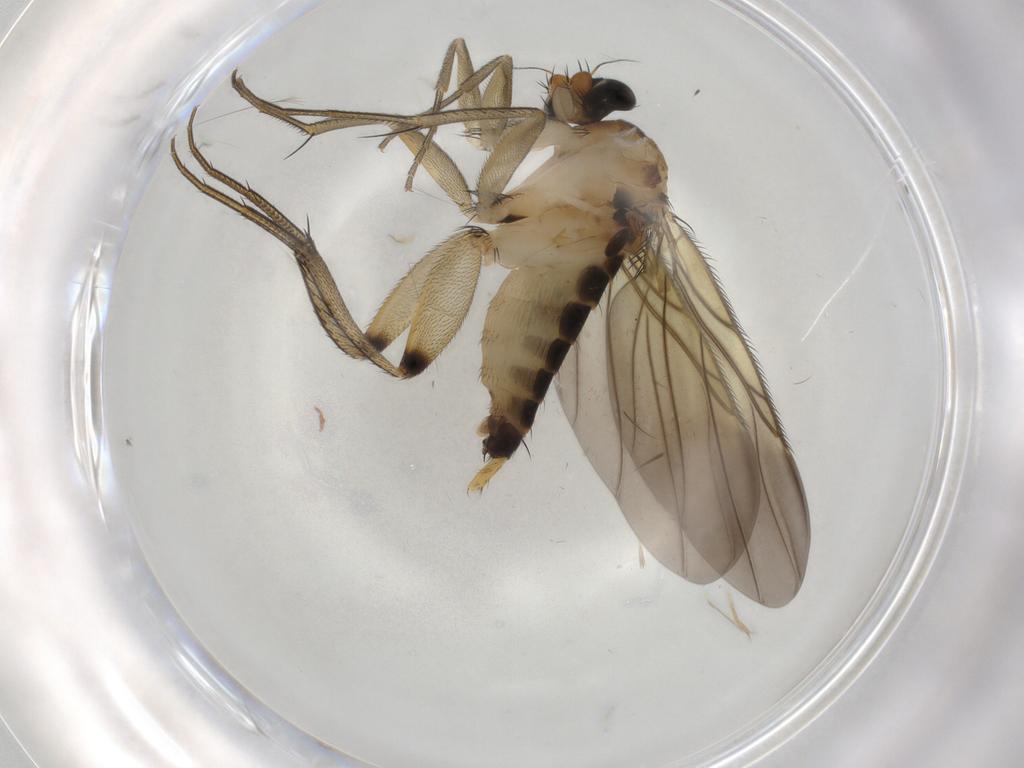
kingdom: Animalia
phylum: Arthropoda
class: Insecta
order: Diptera
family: Phoridae
